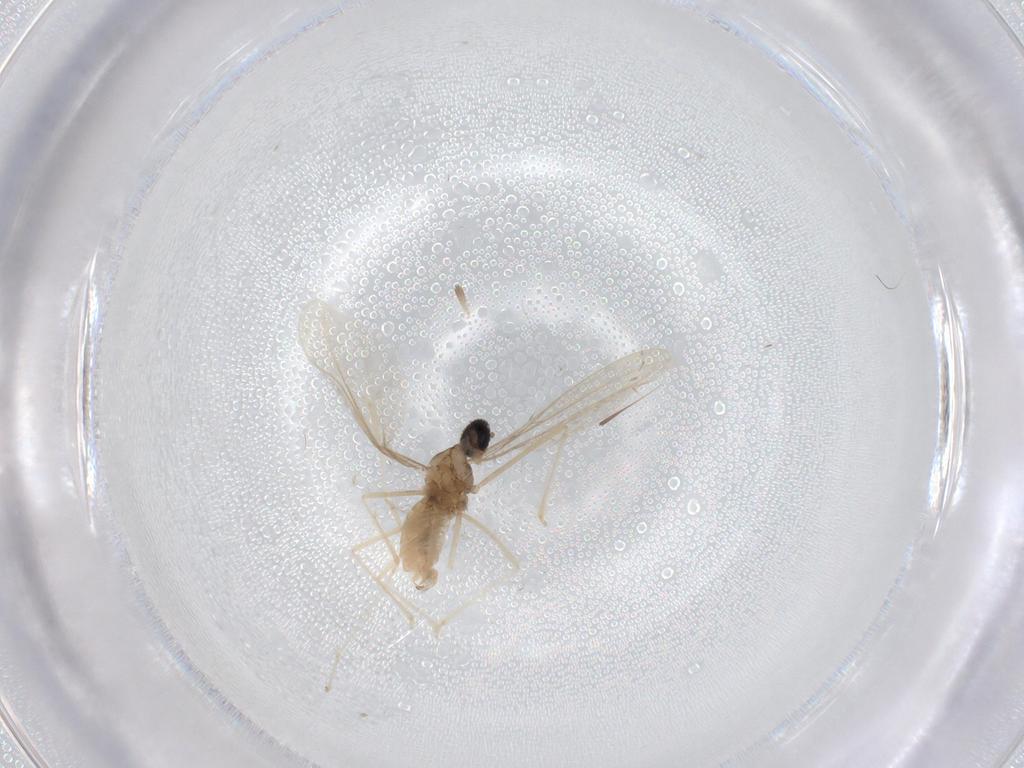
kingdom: Animalia
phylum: Arthropoda
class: Insecta
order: Diptera
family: Cecidomyiidae
